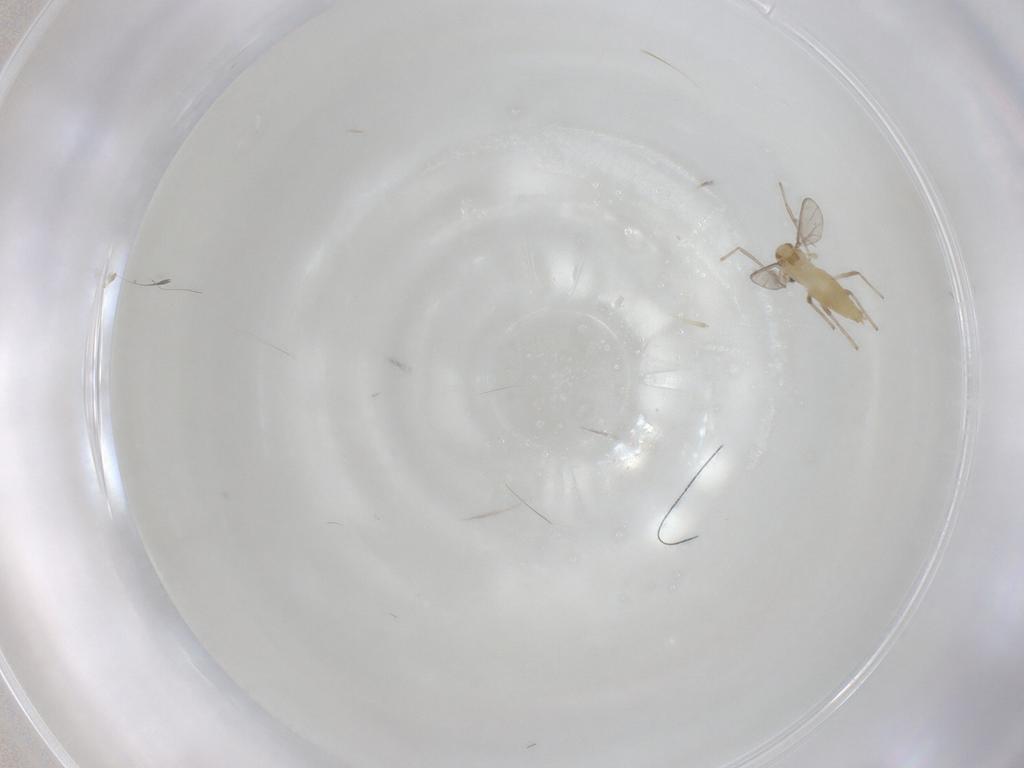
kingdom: Animalia
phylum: Arthropoda
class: Insecta
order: Diptera
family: Chironomidae
